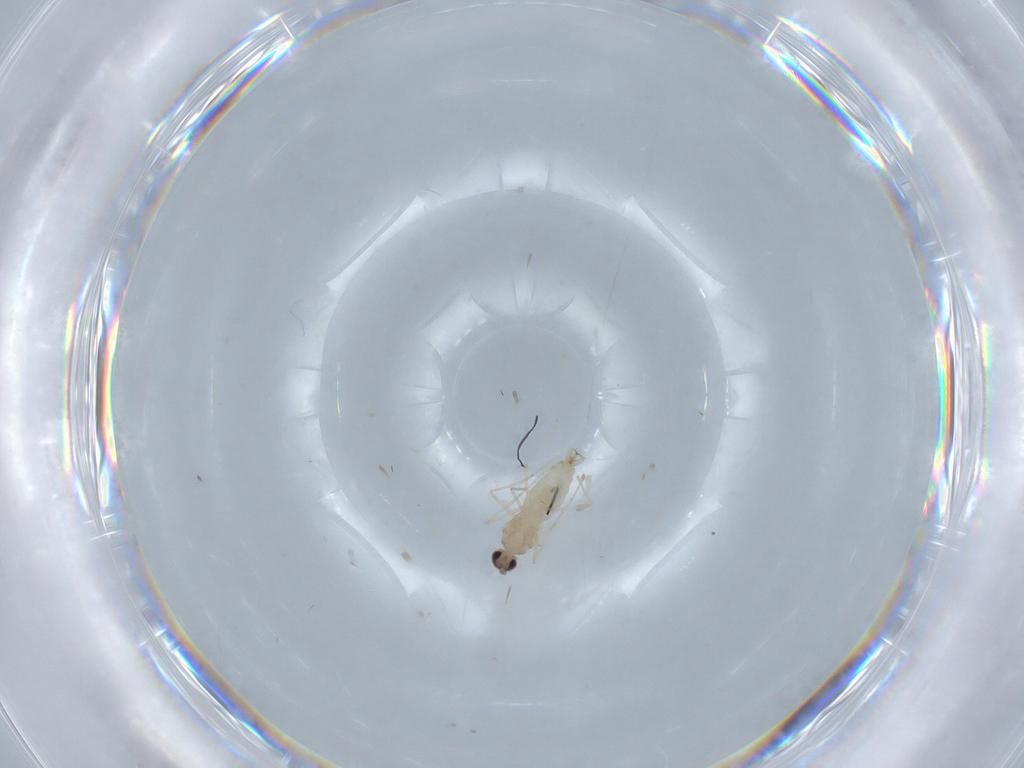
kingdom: Animalia
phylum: Arthropoda
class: Insecta
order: Diptera
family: Cecidomyiidae
